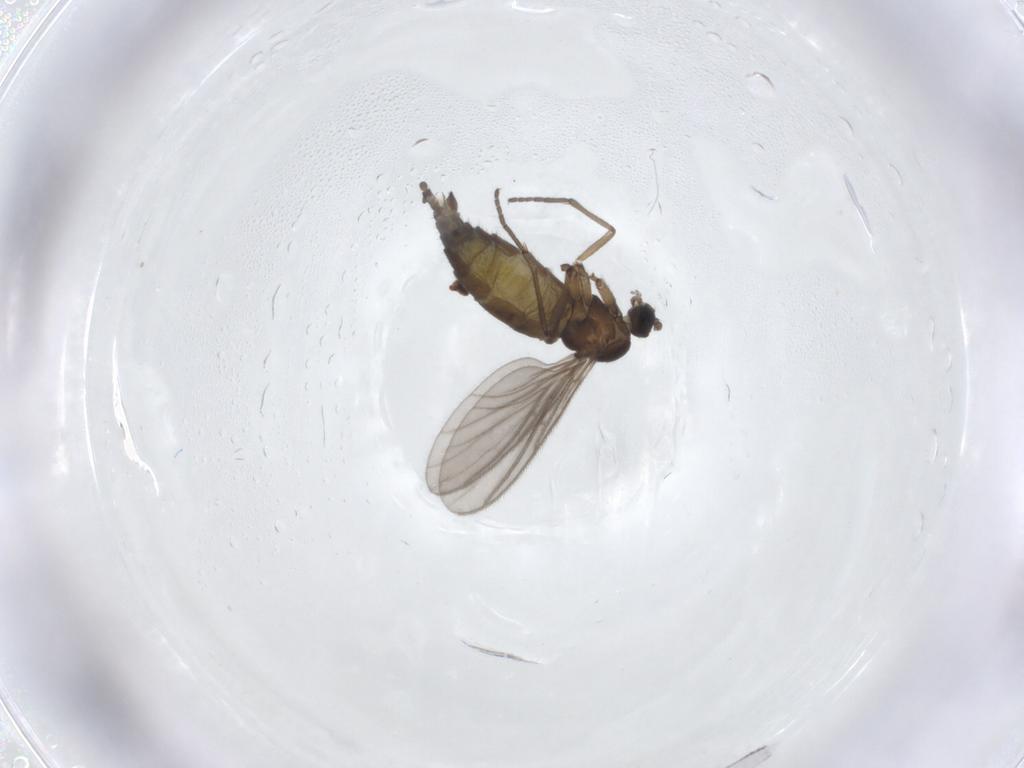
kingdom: Animalia
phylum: Arthropoda
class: Insecta
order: Diptera
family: Sciaridae
